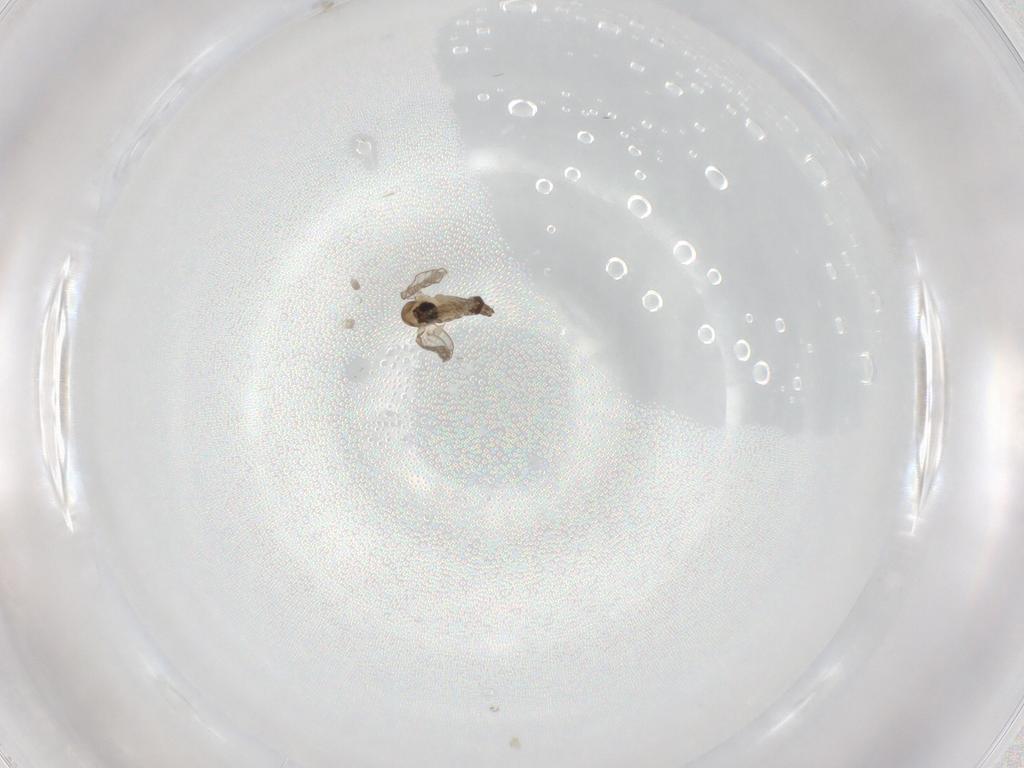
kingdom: Animalia
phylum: Arthropoda
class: Insecta
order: Diptera
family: Psychodidae
